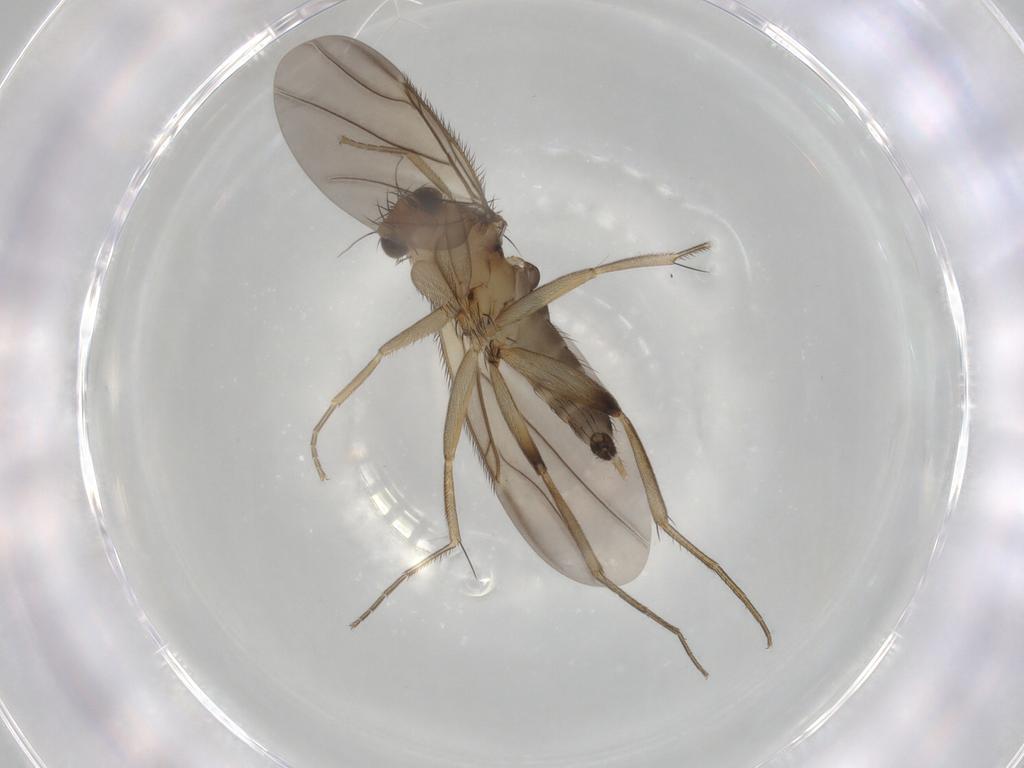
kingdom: Animalia
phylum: Arthropoda
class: Insecta
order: Diptera
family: Phoridae
